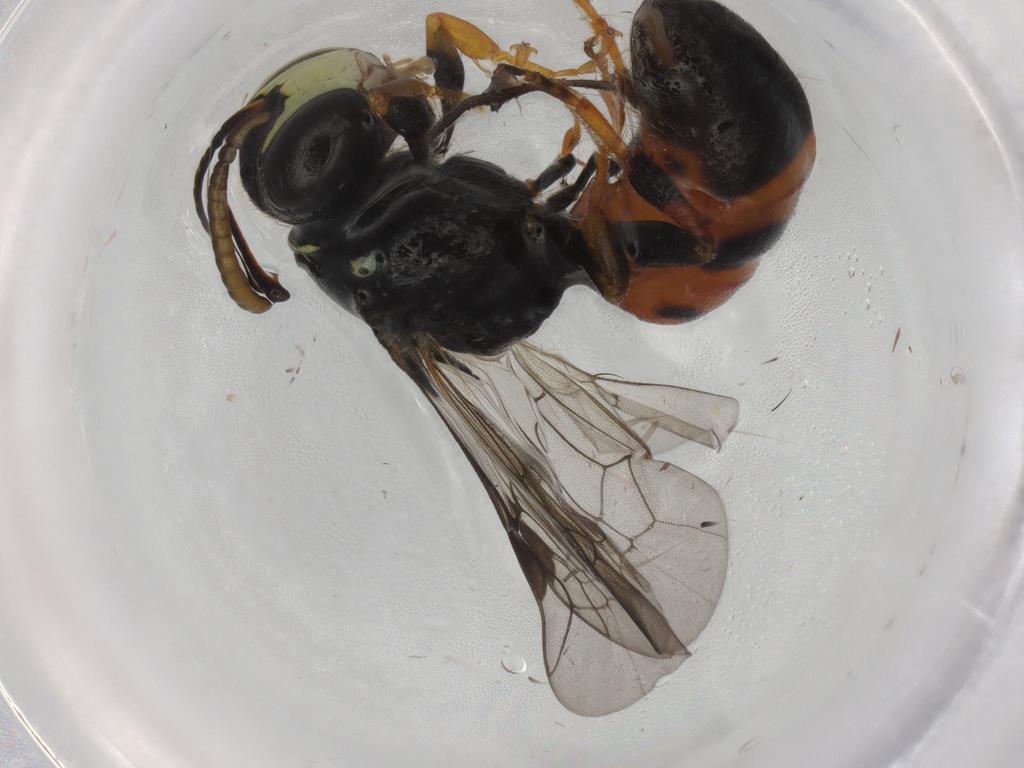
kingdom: Animalia
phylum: Arthropoda
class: Insecta
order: Hymenoptera
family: Colletidae
